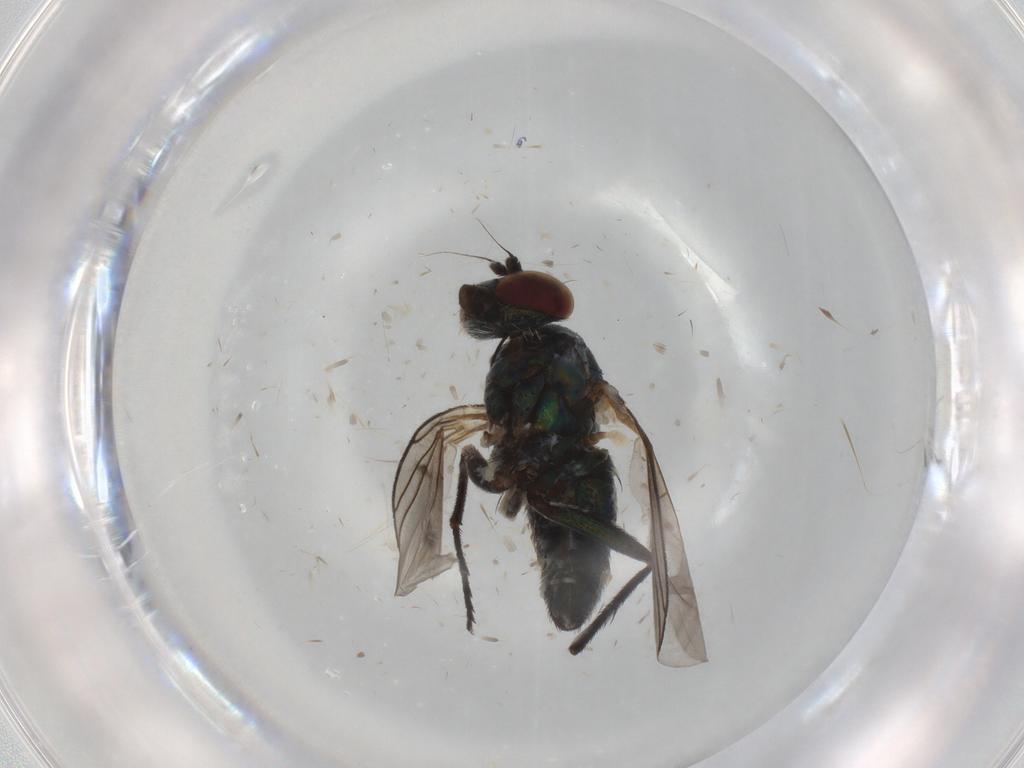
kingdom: Animalia
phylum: Arthropoda
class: Insecta
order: Diptera
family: Dolichopodidae
